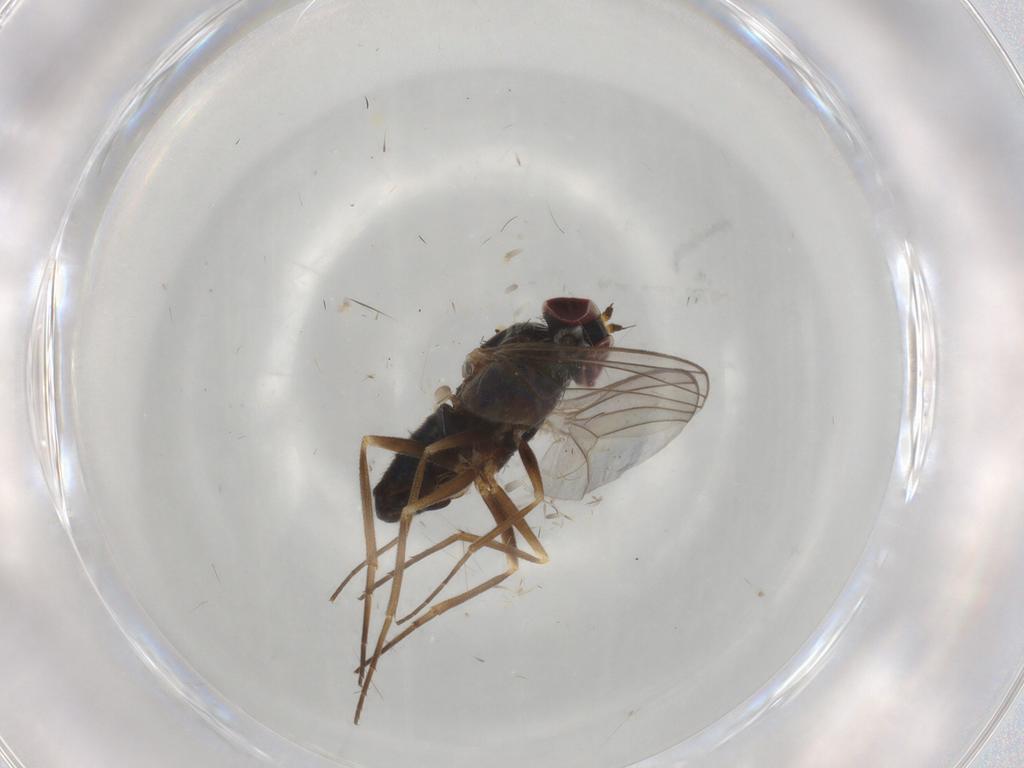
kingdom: Animalia
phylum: Arthropoda
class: Insecta
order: Diptera
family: Dolichopodidae
